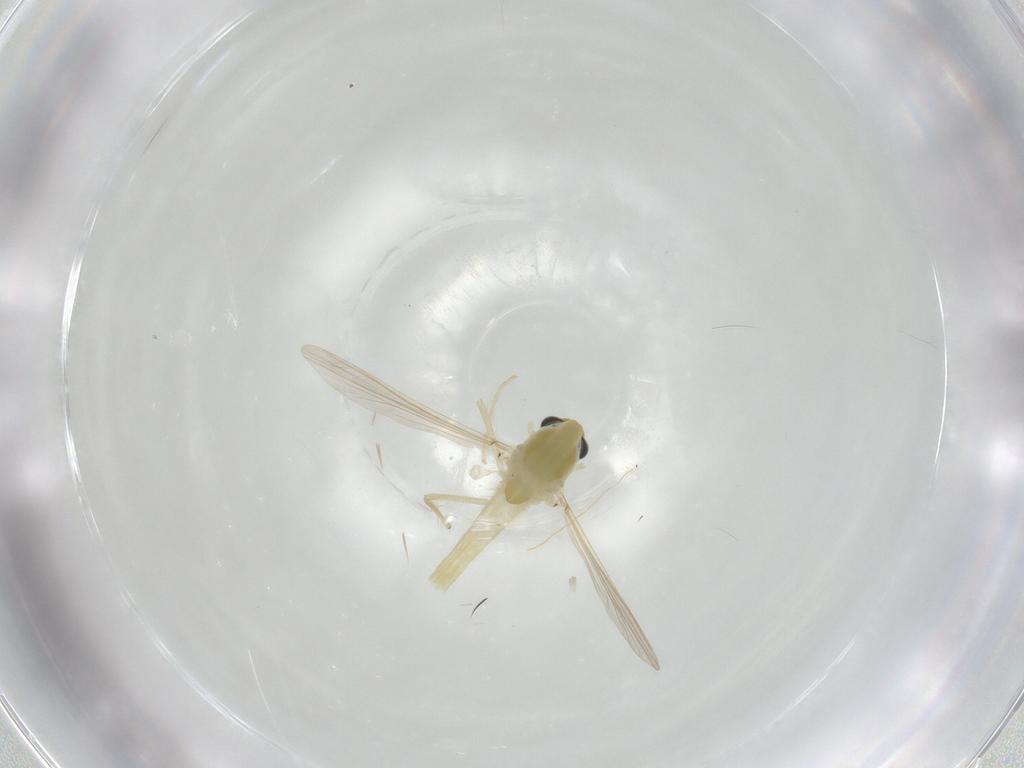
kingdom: Animalia
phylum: Arthropoda
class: Insecta
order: Diptera
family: Chironomidae
